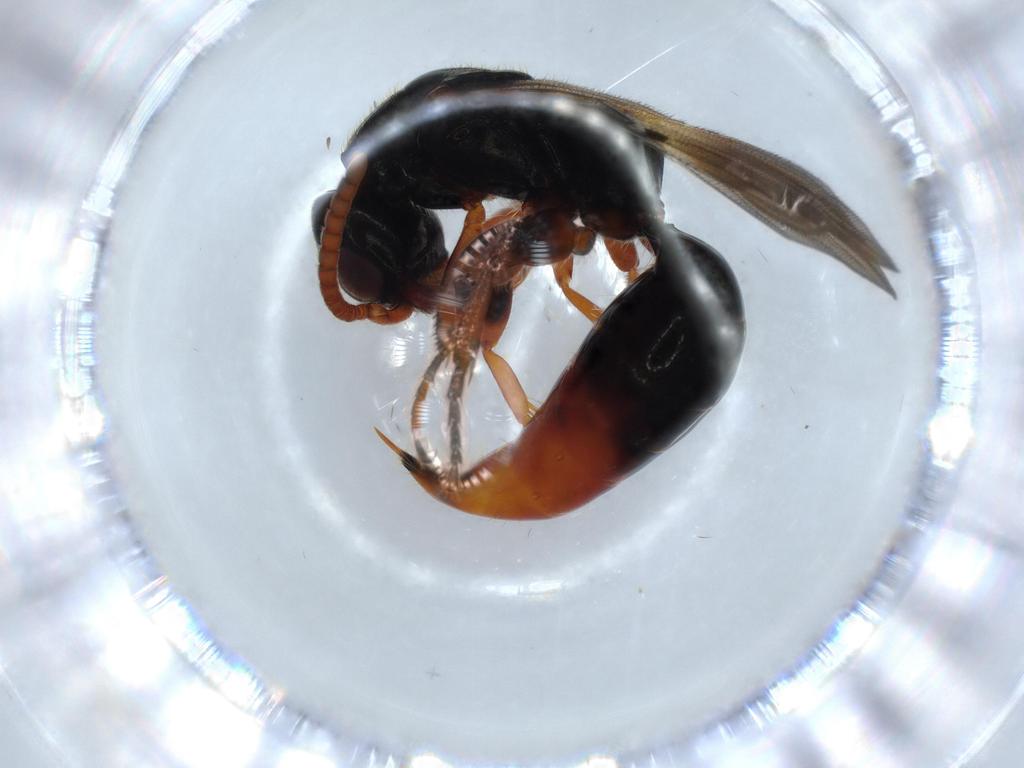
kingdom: Animalia
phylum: Arthropoda
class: Insecta
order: Hymenoptera
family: Bethylidae
